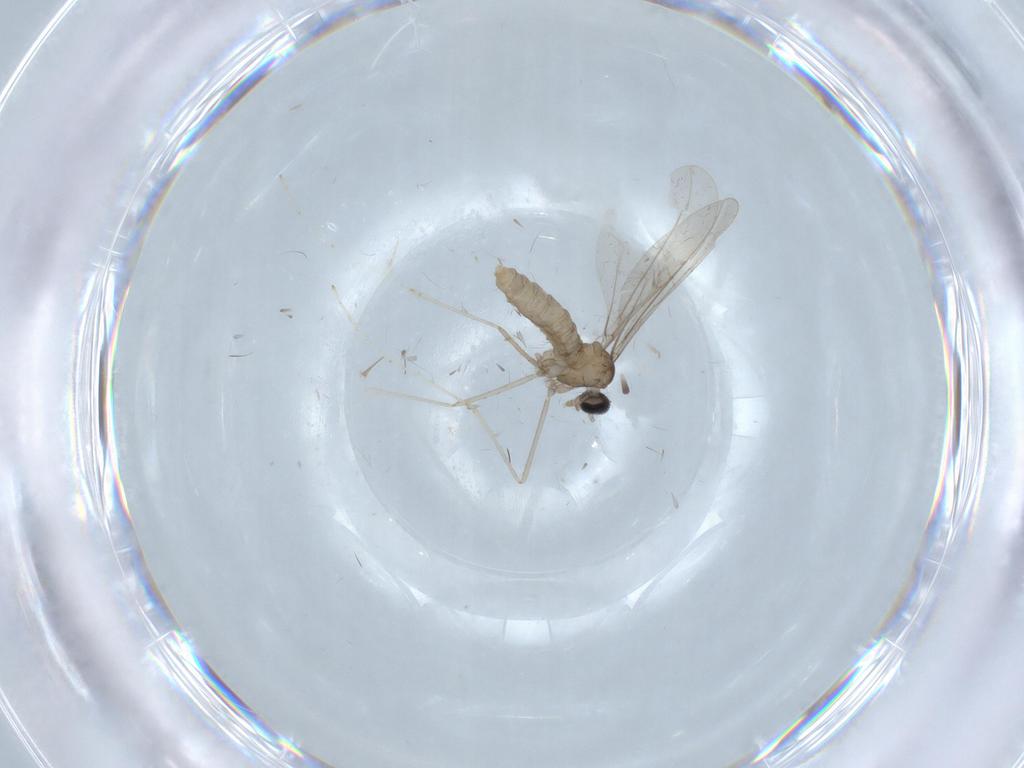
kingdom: Animalia
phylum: Arthropoda
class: Insecta
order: Diptera
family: Cecidomyiidae
